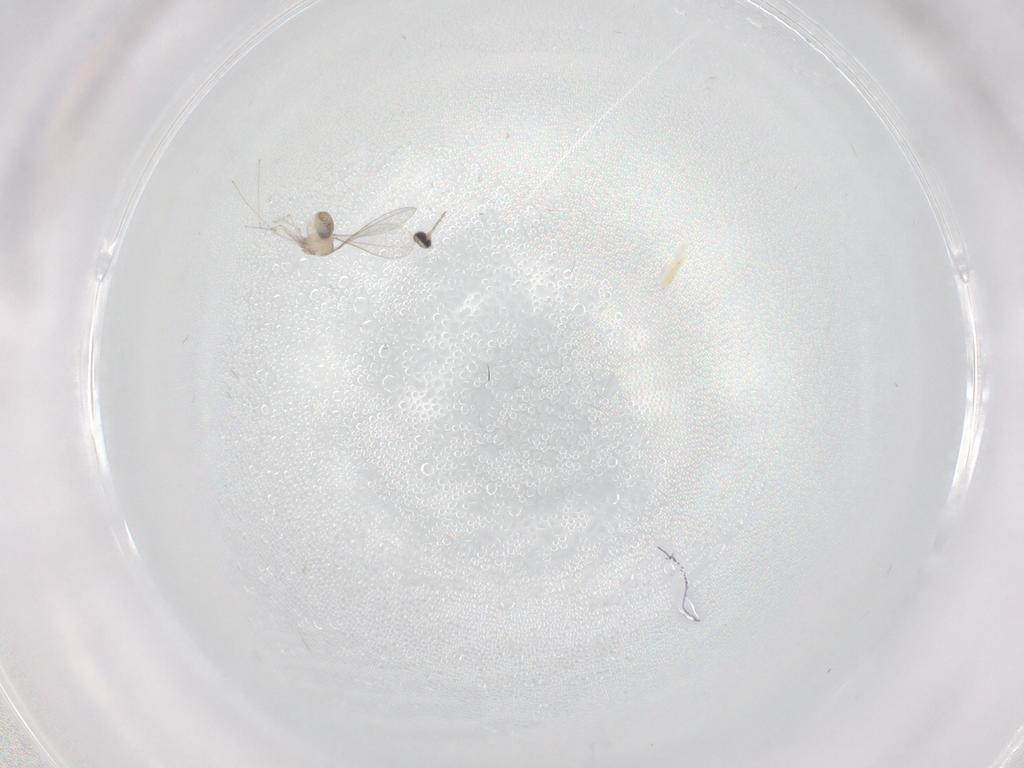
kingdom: Animalia
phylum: Arthropoda
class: Insecta
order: Diptera
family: Cecidomyiidae
